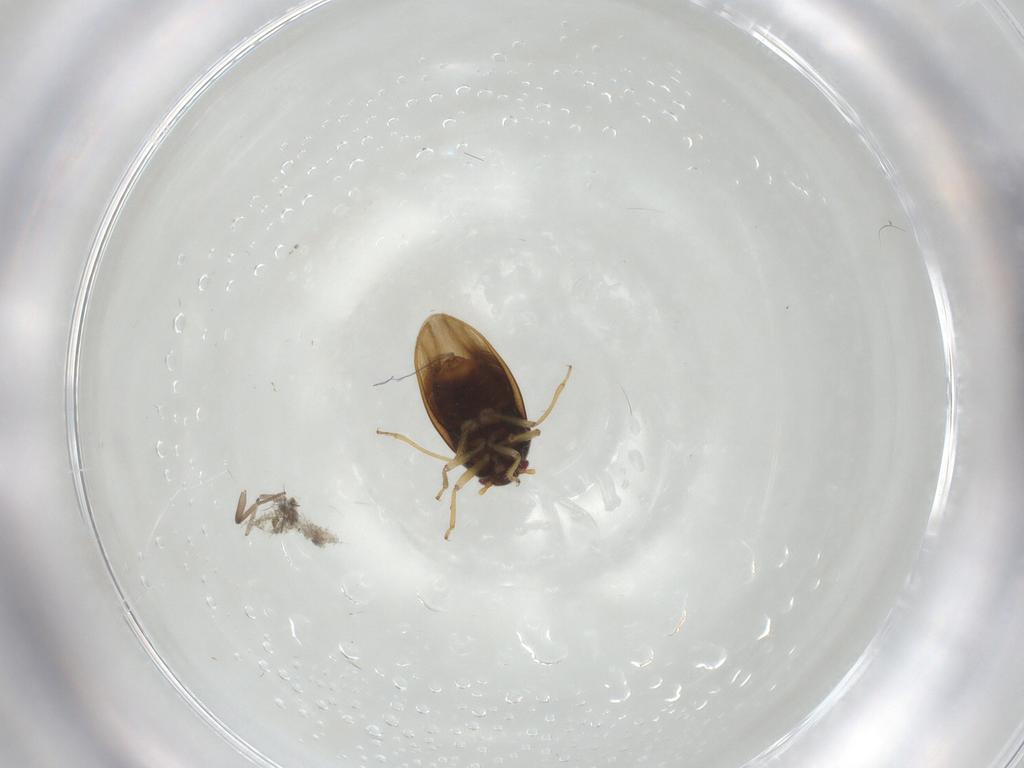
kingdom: Animalia
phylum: Arthropoda
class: Insecta
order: Hemiptera
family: Schizopteridae
